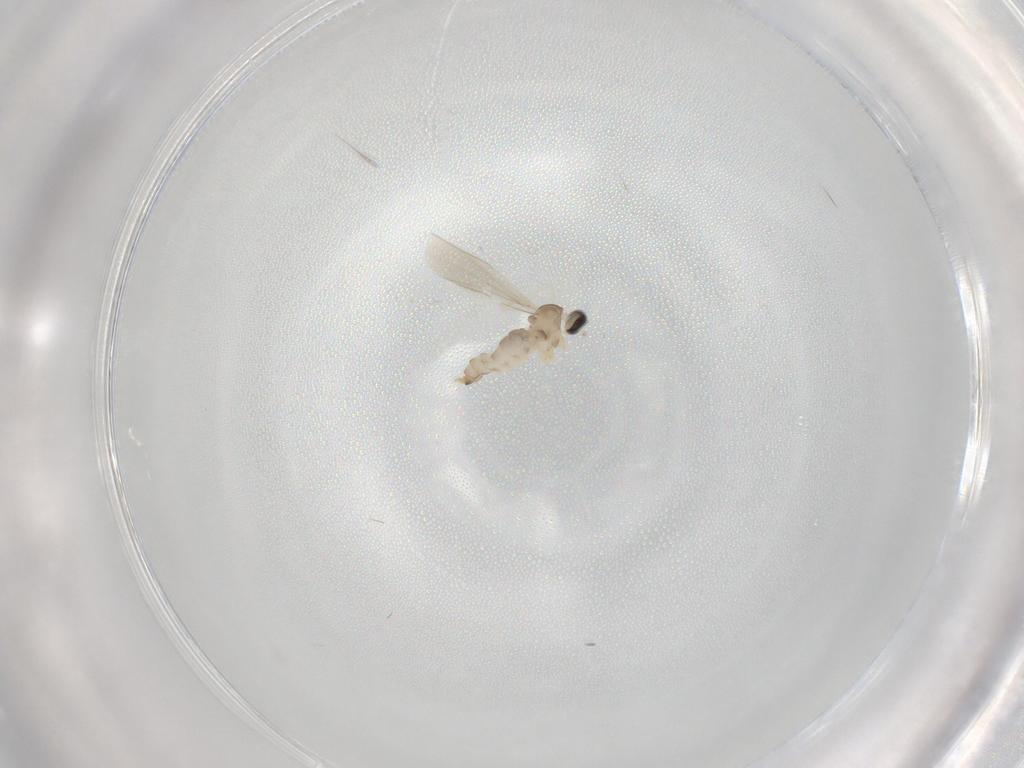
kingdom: Animalia
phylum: Arthropoda
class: Insecta
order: Diptera
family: Cecidomyiidae
